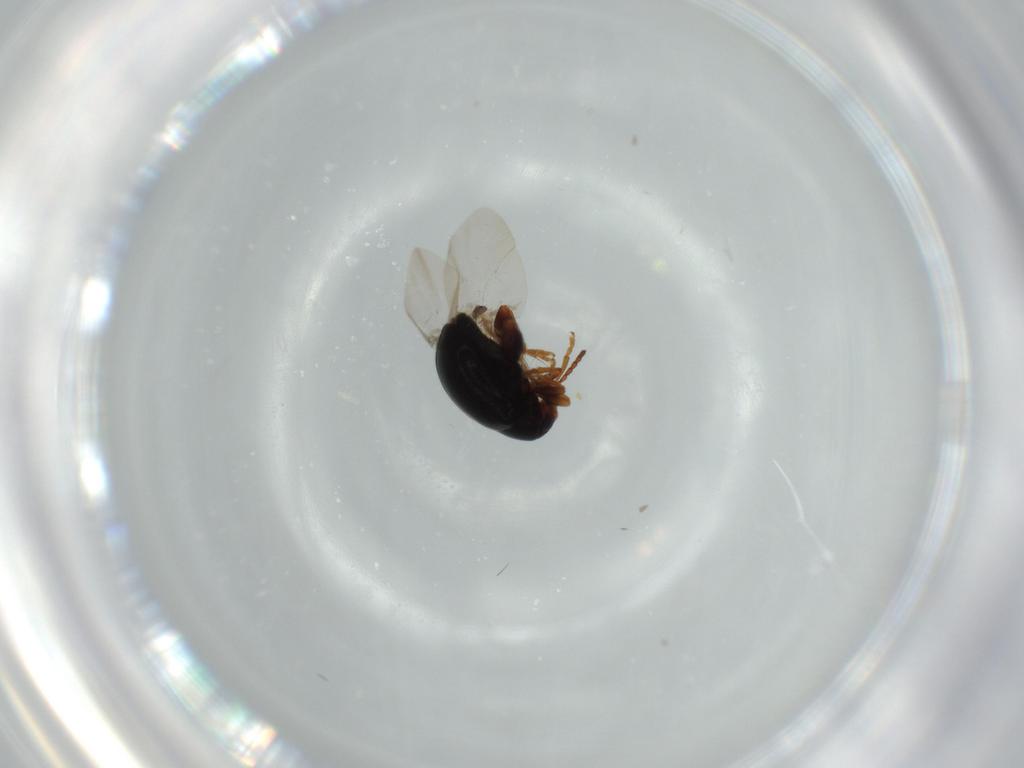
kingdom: Animalia
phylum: Arthropoda
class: Insecta
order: Coleoptera
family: Chrysomelidae
